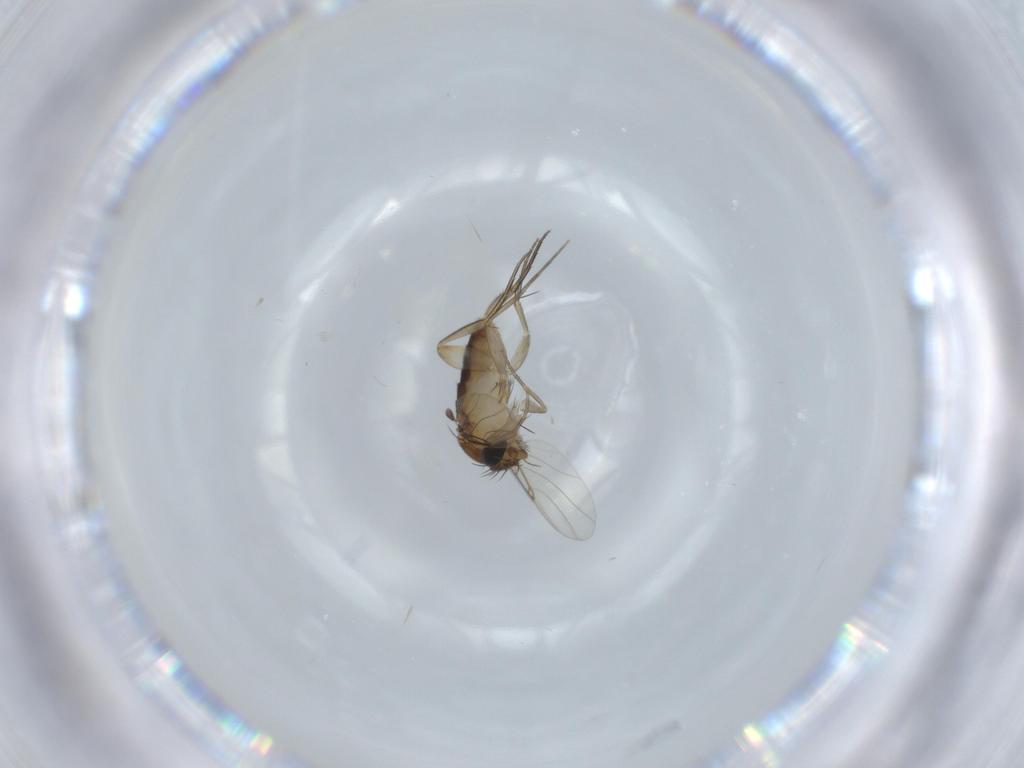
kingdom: Animalia
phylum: Arthropoda
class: Insecta
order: Diptera
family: Phoridae
